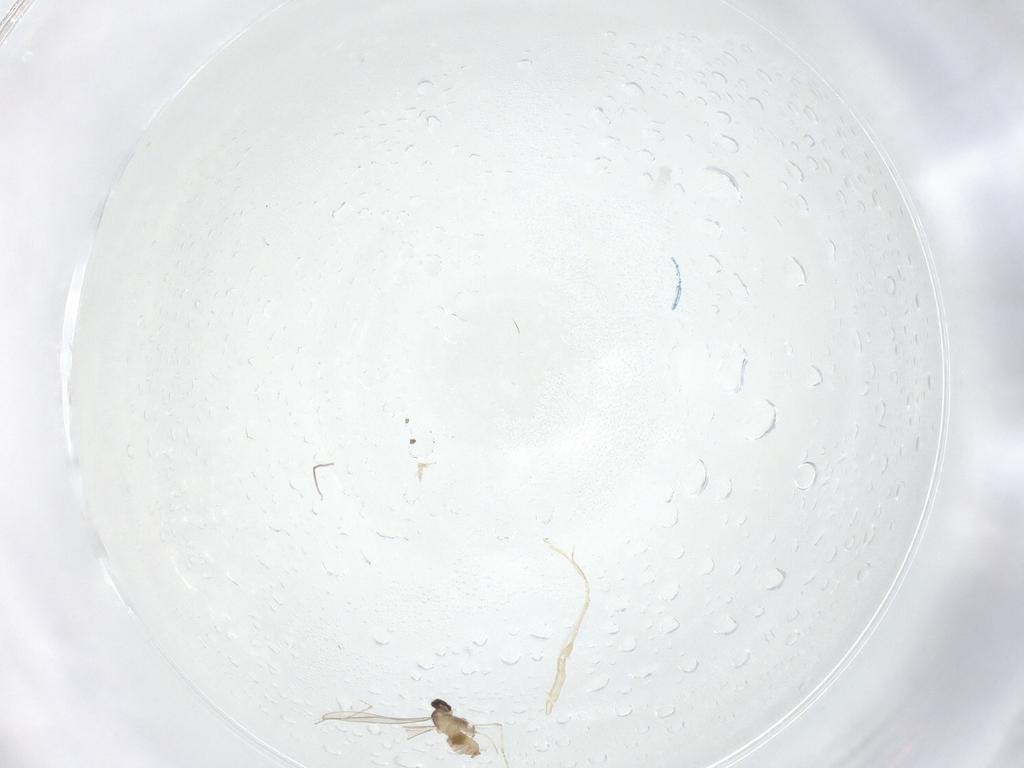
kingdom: Animalia
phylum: Arthropoda
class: Insecta
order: Diptera
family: Cecidomyiidae
